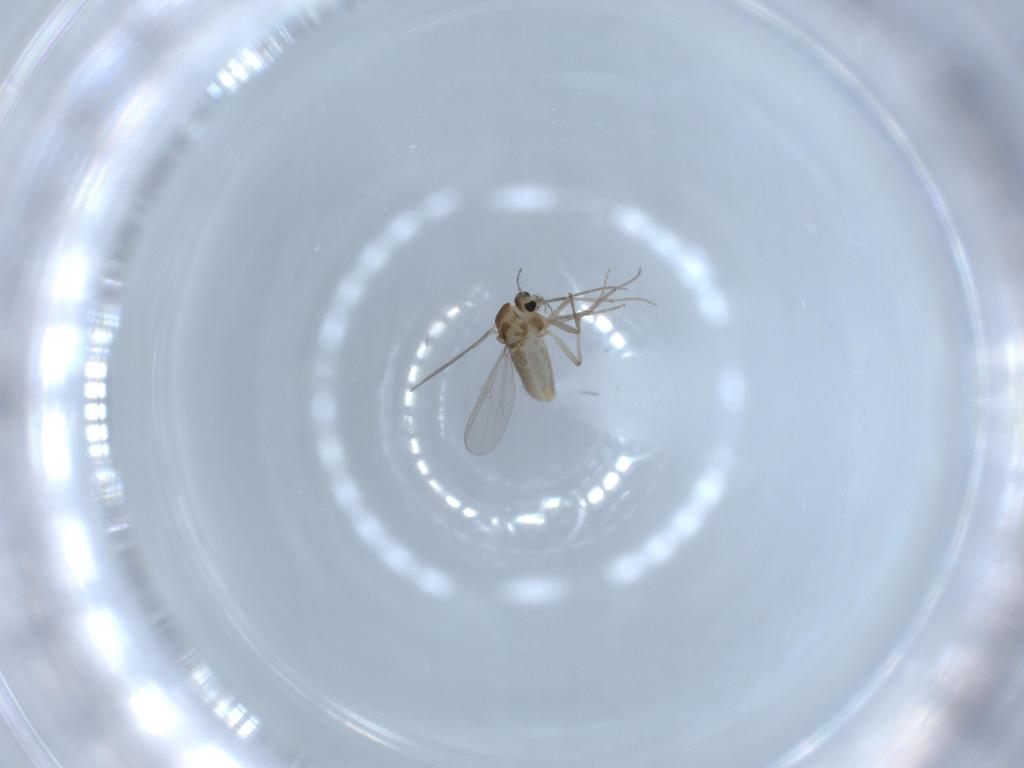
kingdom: Animalia
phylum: Arthropoda
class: Insecta
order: Diptera
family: Chironomidae
